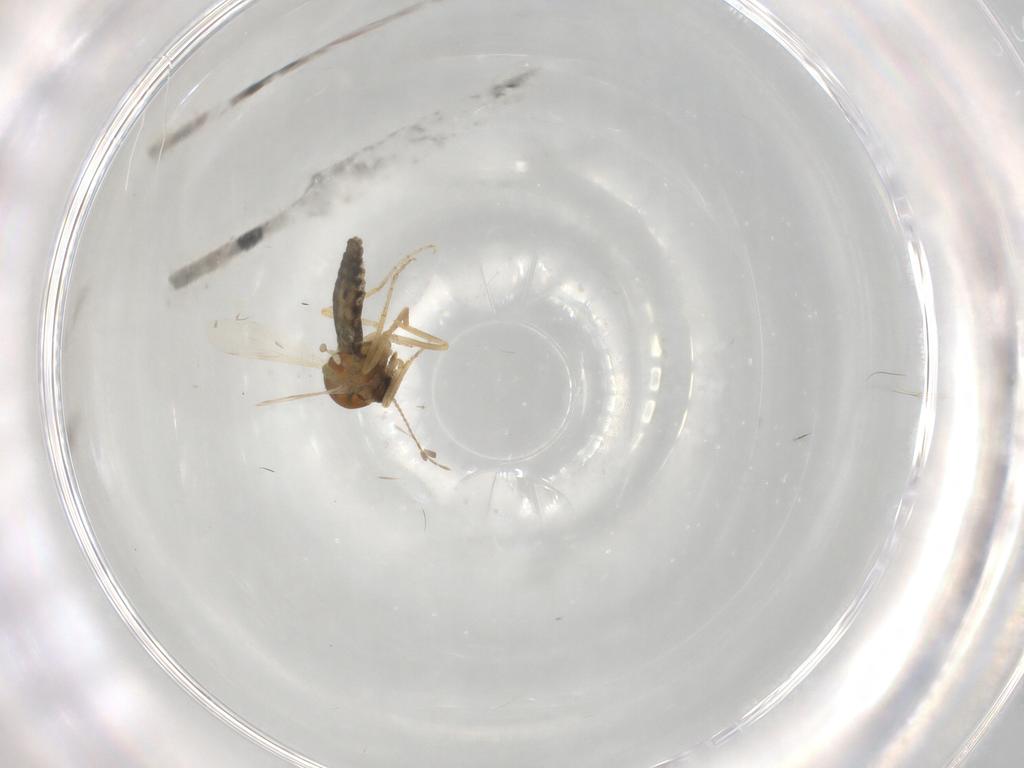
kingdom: Animalia
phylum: Arthropoda
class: Insecta
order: Diptera
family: Ceratopogonidae
